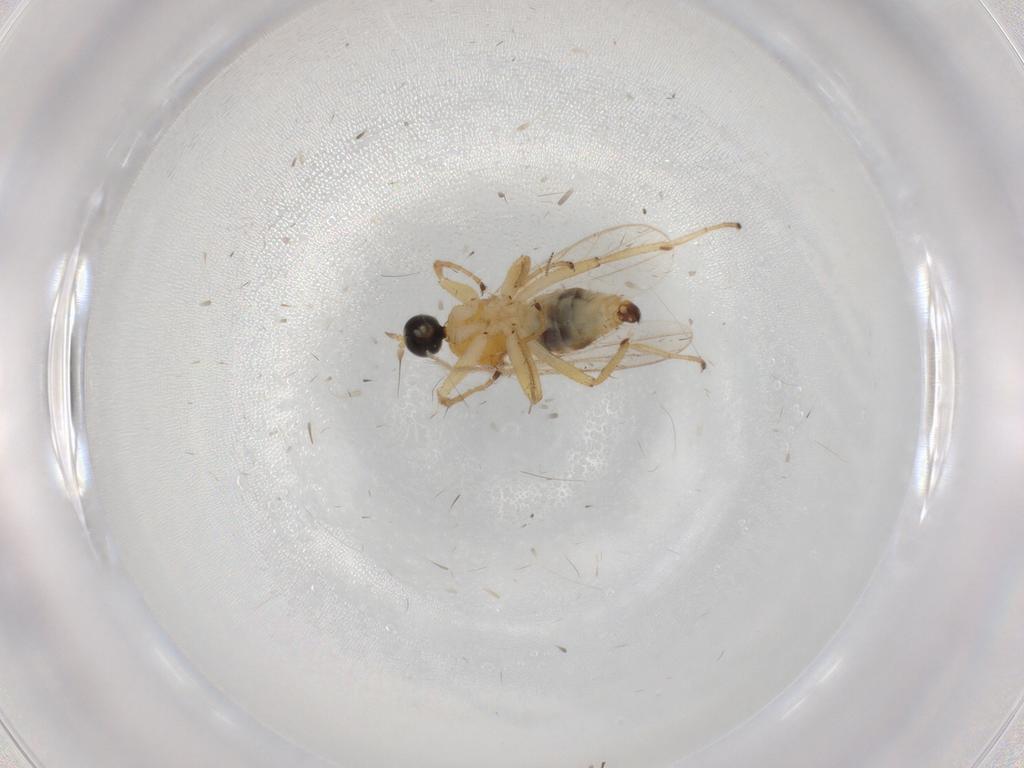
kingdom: Animalia
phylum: Arthropoda
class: Insecta
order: Diptera
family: Hybotidae
